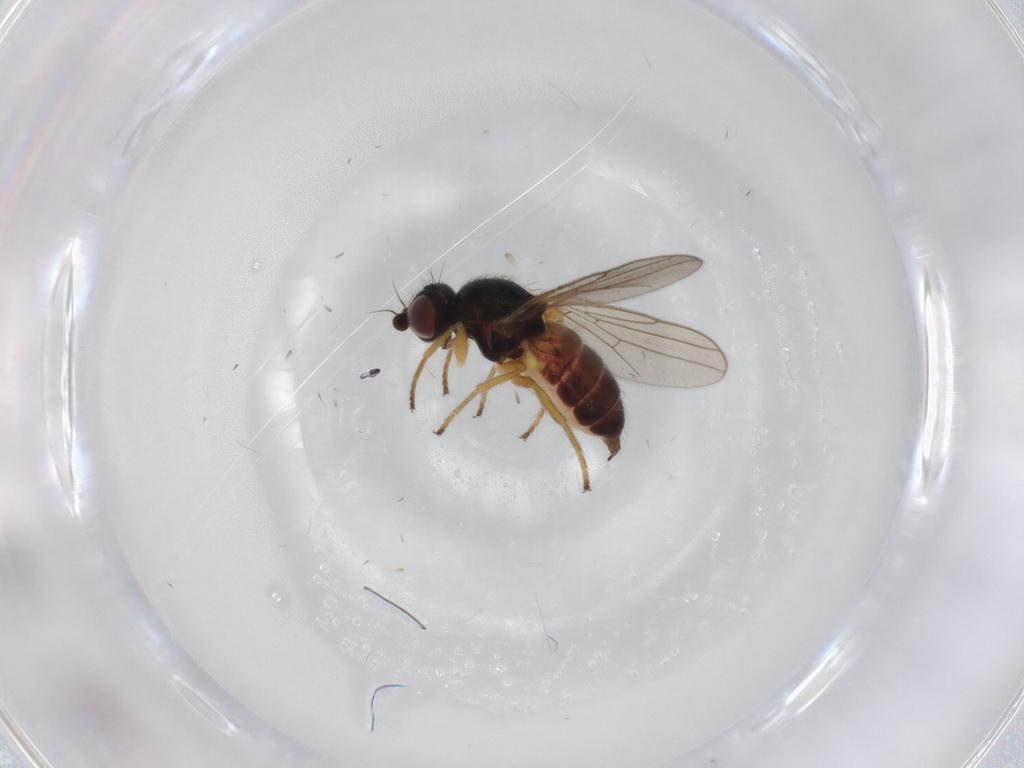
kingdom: Animalia
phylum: Arthropoda
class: Insecta
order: Diptera
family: Chloropidae
